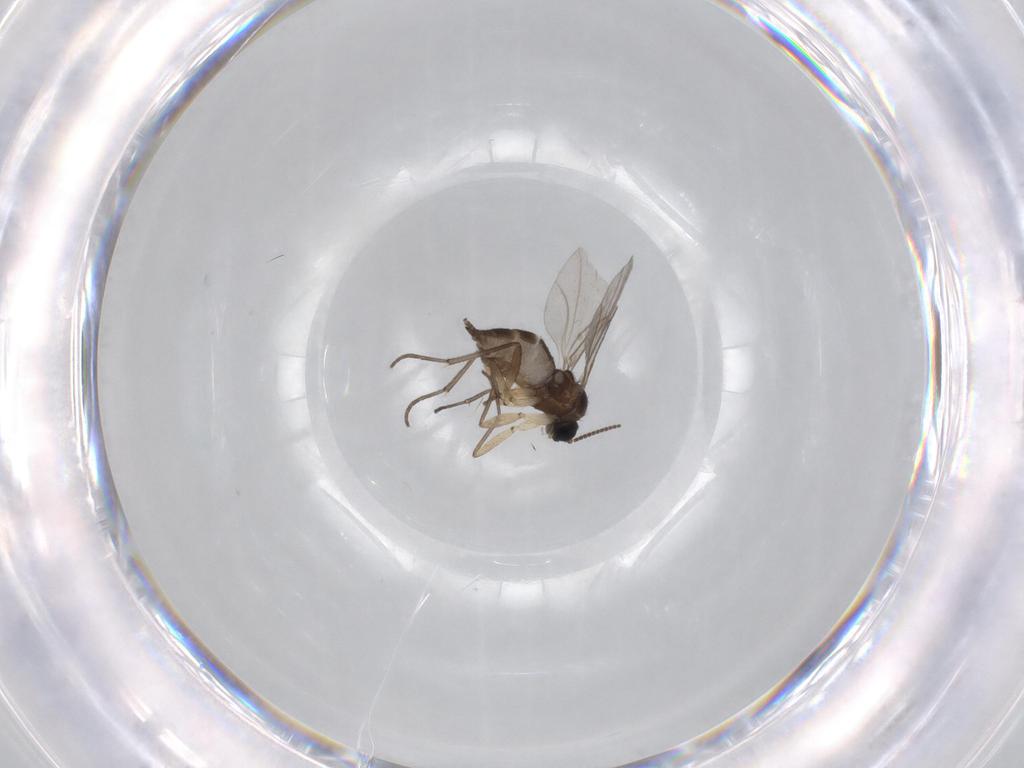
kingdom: Animalia
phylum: Arthropoda
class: Insecta
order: Diptera
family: Sciaridae
